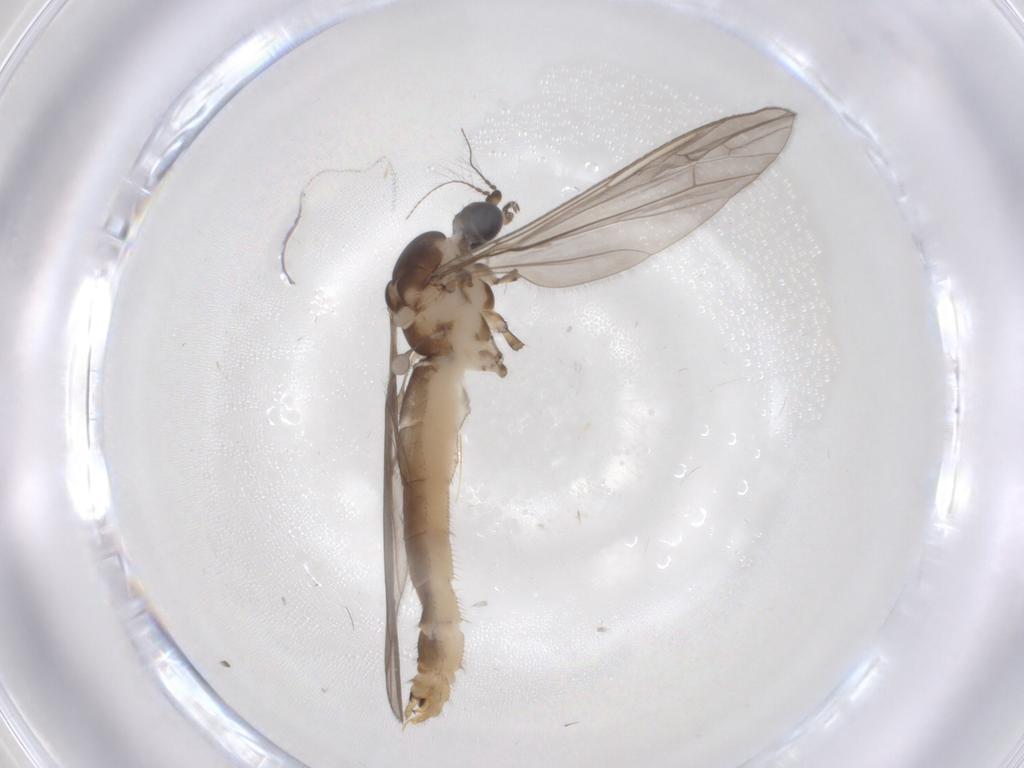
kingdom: Animalia
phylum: Arthropoda
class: Insecta
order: Diptera
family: Limoniidae
